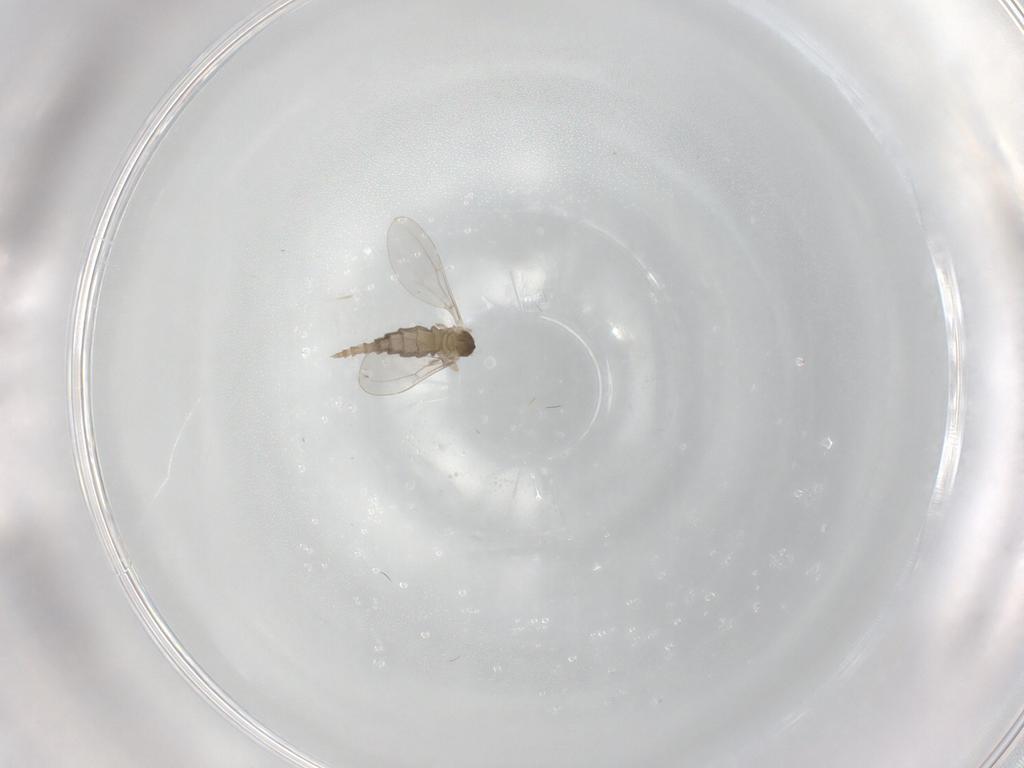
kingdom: Animalia
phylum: Arthropoda
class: Insecta
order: Diptera
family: Cecidomyiidae
